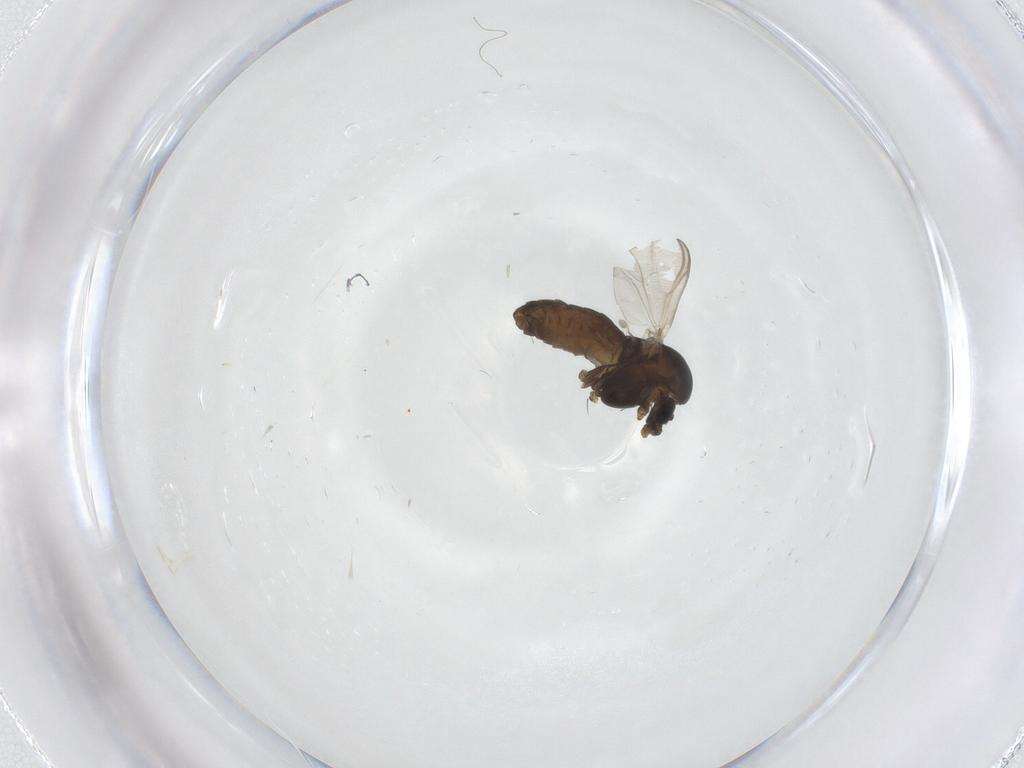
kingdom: Animalia
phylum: Arthropoda
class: Insecta
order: Diptera
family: Chironomidae
